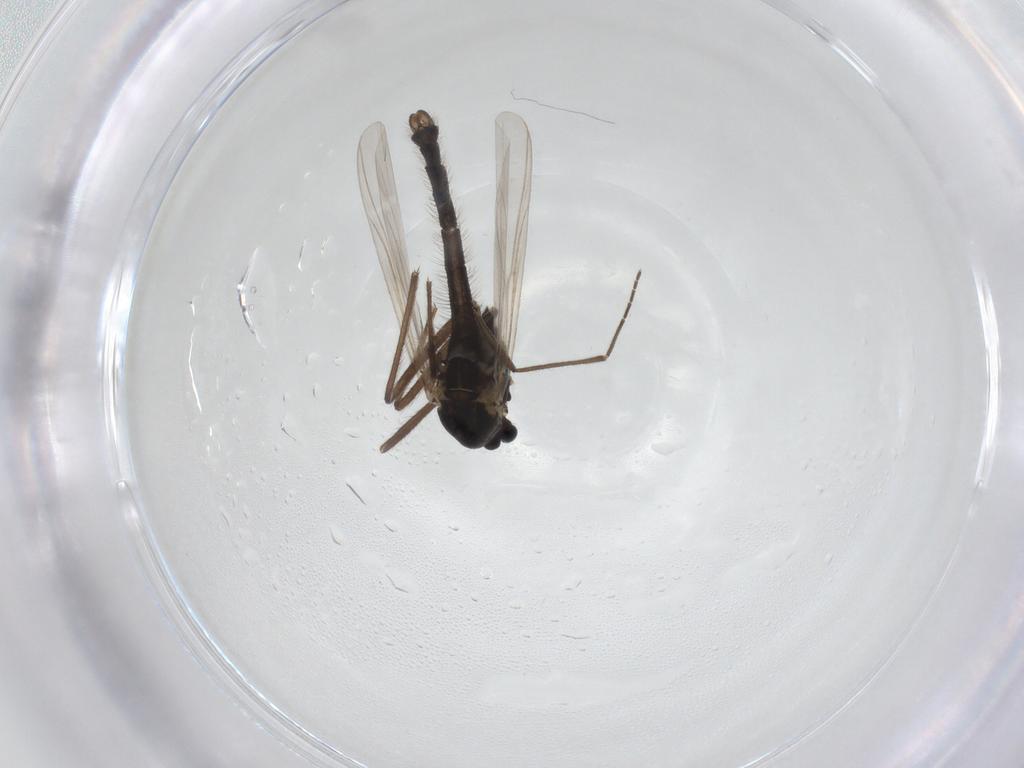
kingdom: Animalia
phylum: Arthropoda
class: Insecta
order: Diptera
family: Chironomidae
